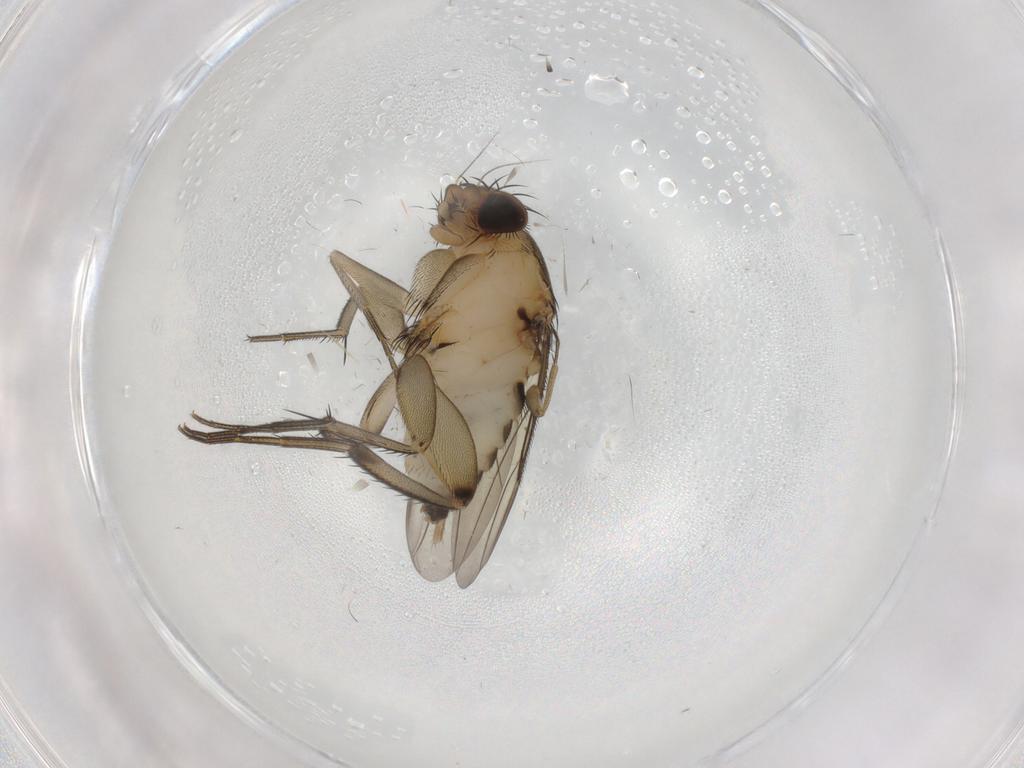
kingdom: Animalia
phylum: Arthropoda
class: Insecta
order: Diptera
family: Phoridae
